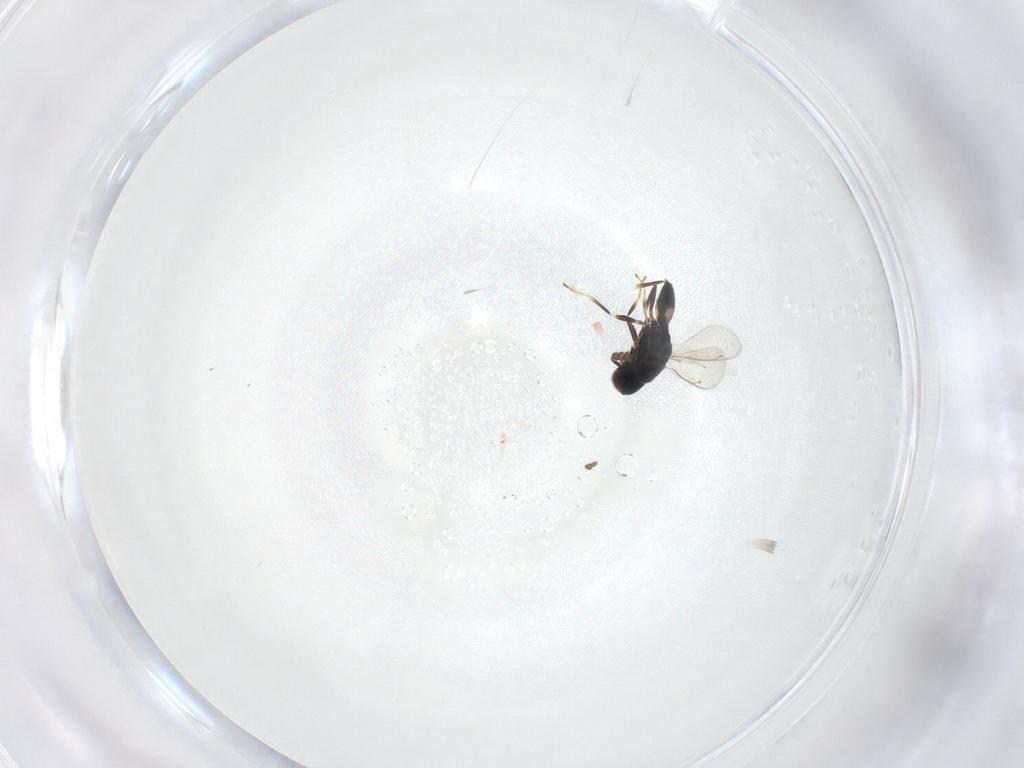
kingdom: Animalia
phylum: Arthropoda
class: Insecta
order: Hymenoptera
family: Eulophidae
